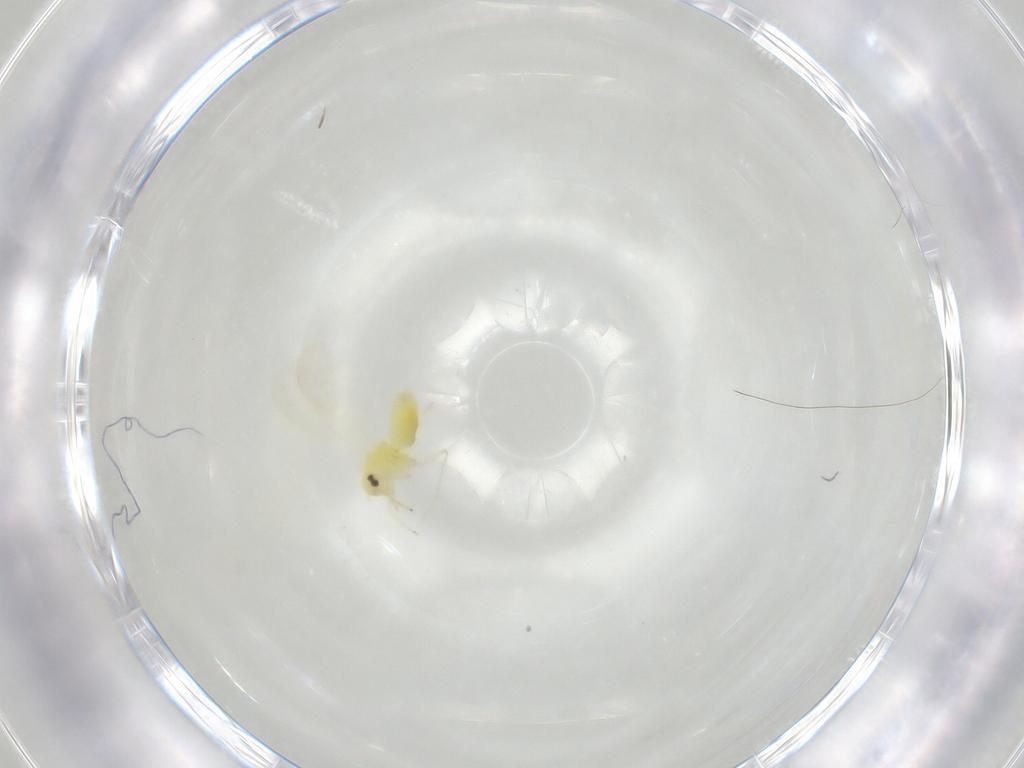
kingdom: Animalia
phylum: Arthropoda
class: Insecta
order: Hemiptera
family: Aleyrodidae
